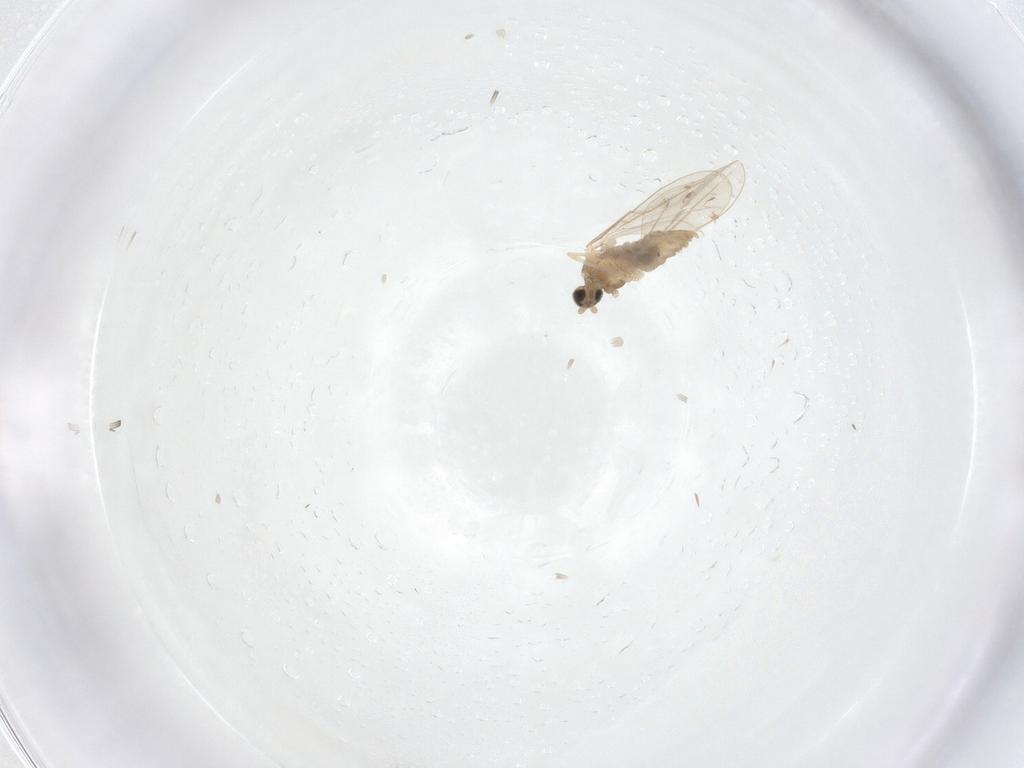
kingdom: Animalia
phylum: Arthropoda
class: Insecta
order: Diptera
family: Cecidomyiidae
